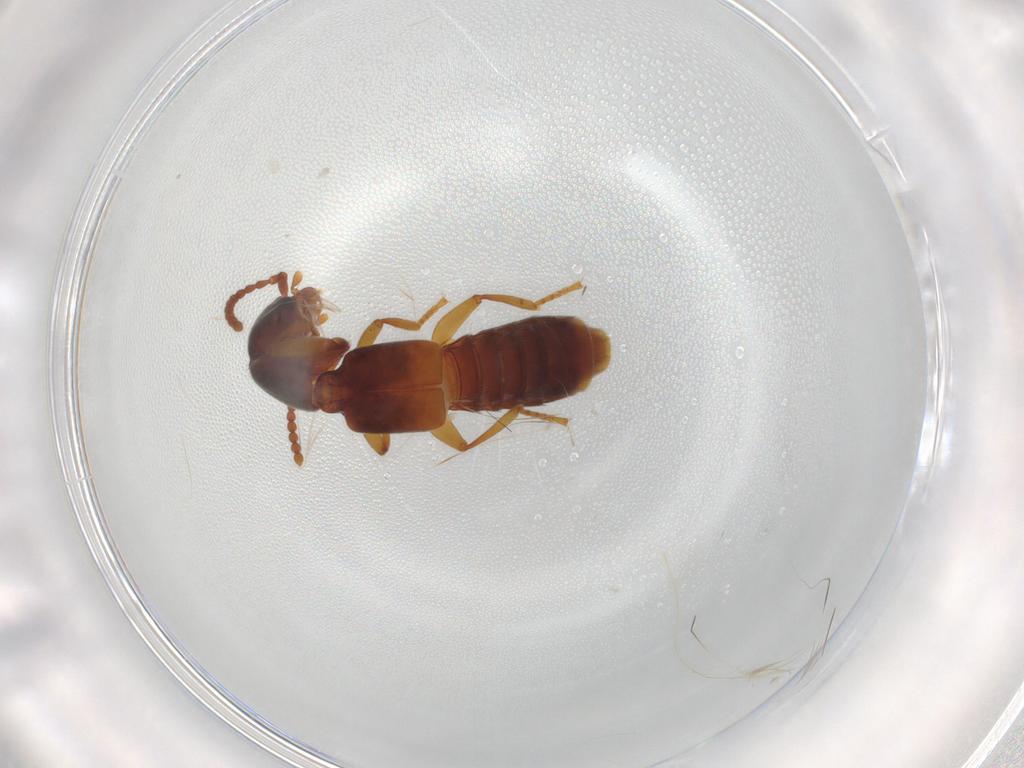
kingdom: Animalia
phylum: Arthropoda
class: Insecta
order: Coleoptera
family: Staphylinidae
